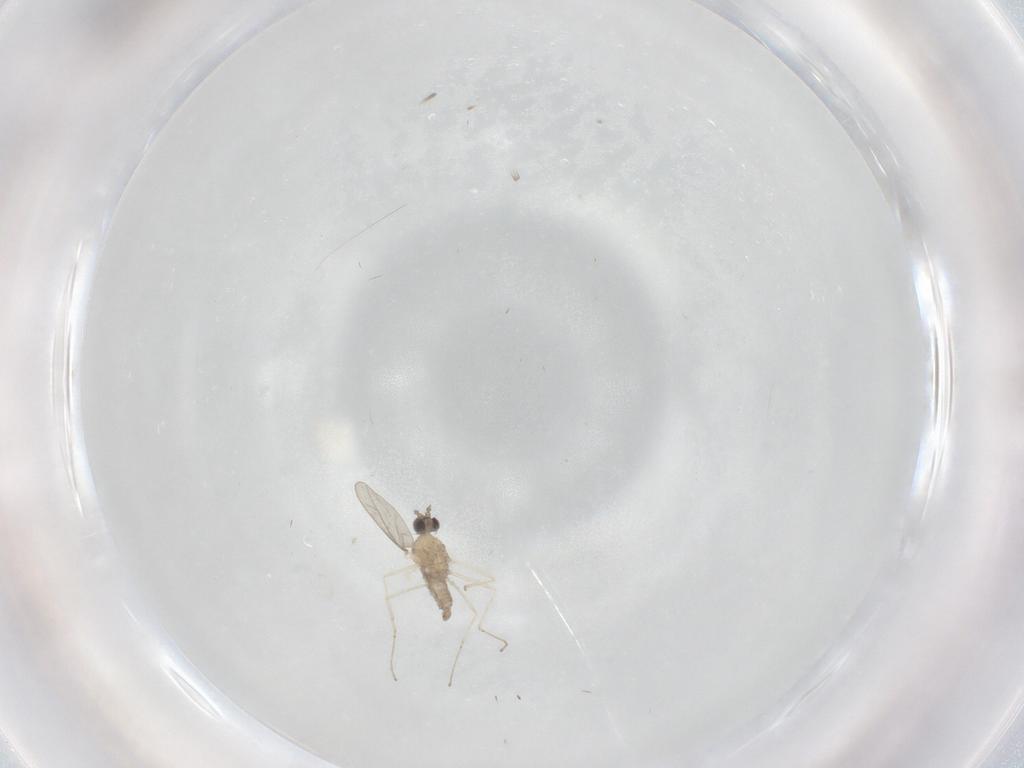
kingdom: Animalia
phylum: Arthropoda
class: Insecta
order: Diptera
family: Cecidomyiidae
